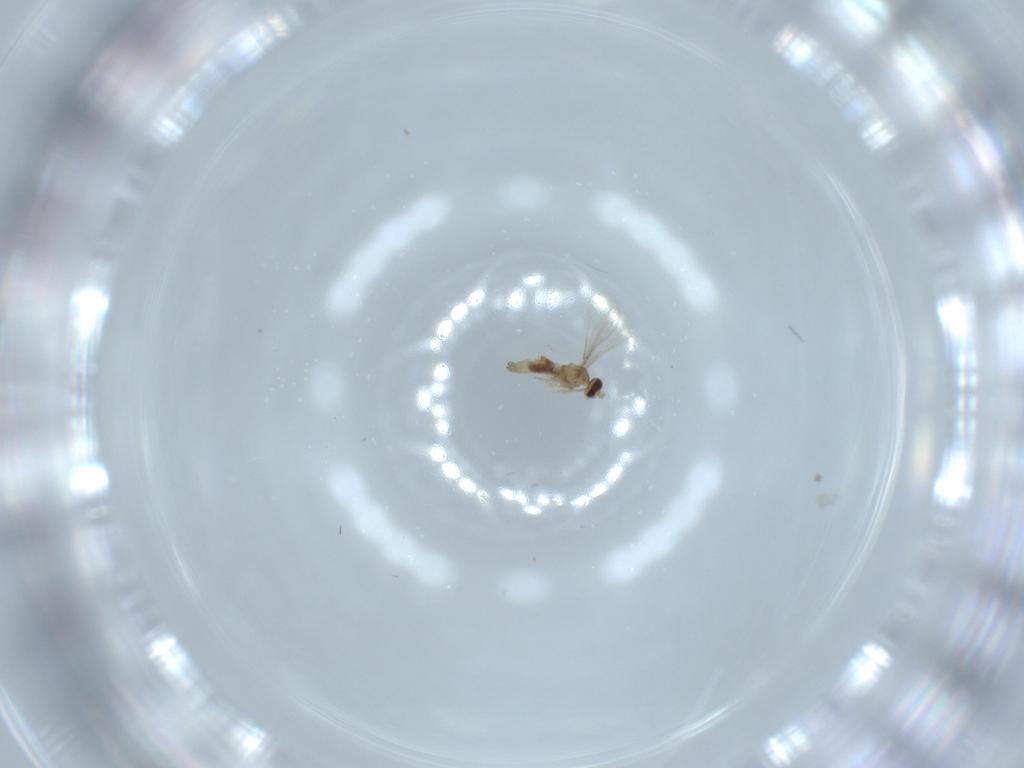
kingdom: Animalia
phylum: Arthropoda
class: Insecta
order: Diptera
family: Cecidomyiidae
